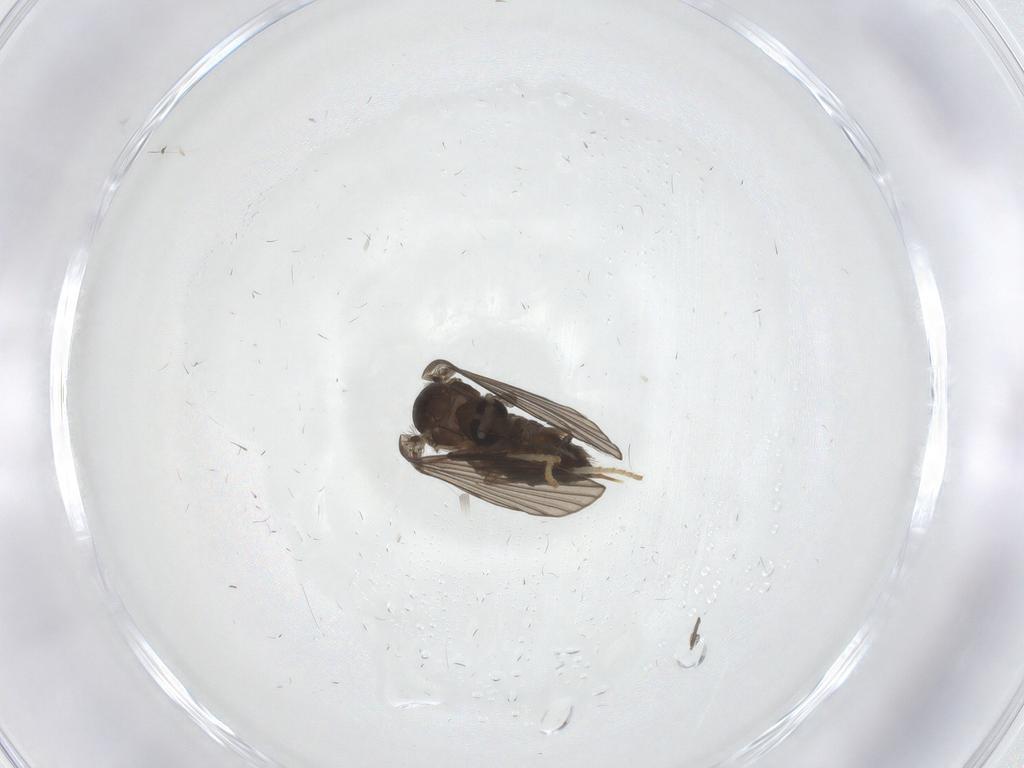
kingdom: Animalia
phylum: Arthropoda
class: Insecta
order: Diptera
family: Psychodidae
